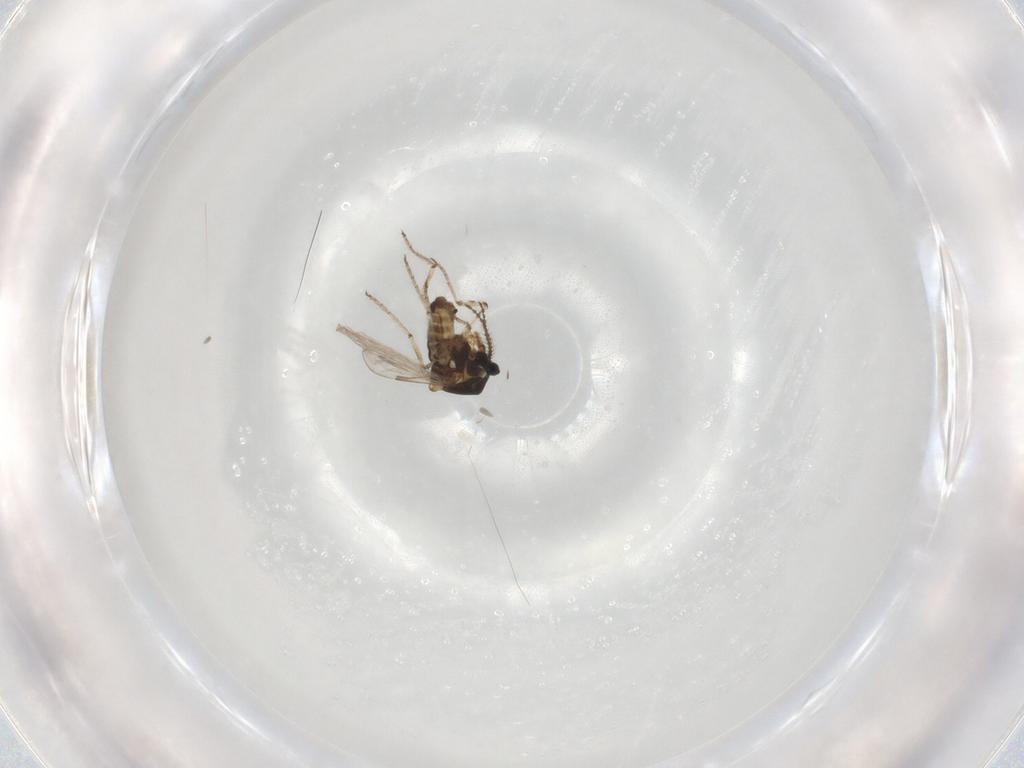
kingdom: Animalia
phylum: Arthropoda
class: Insecta
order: Diptera
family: Ceratopogonidae
